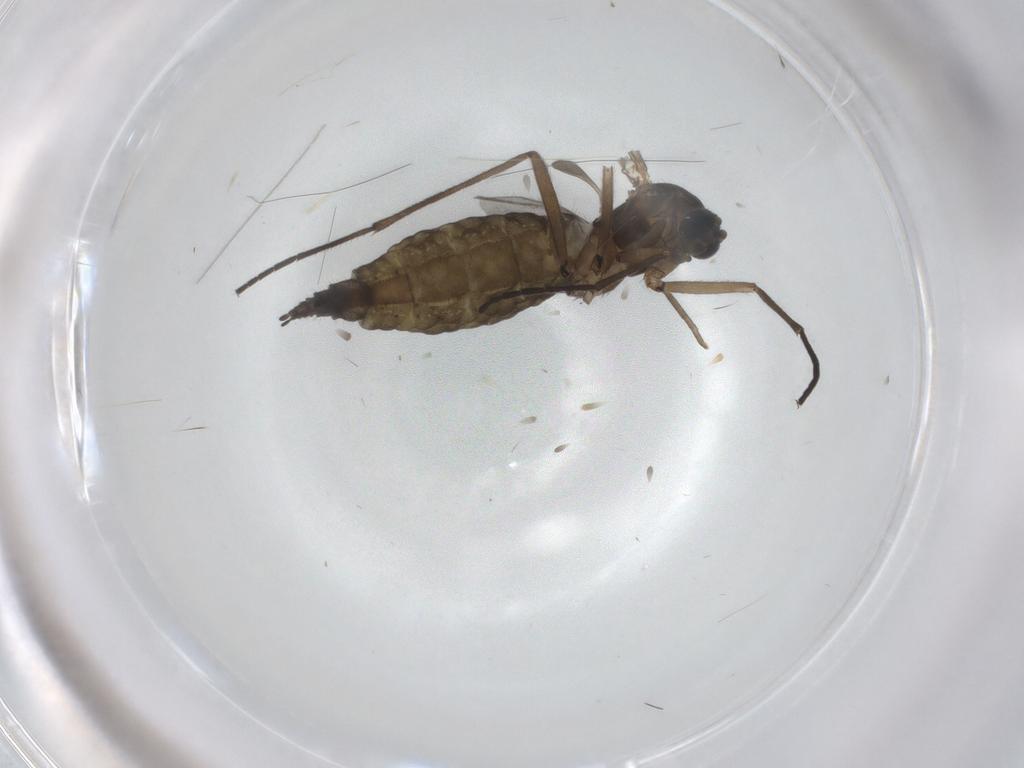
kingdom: Animalia
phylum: Arthropoda
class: Insecta
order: Diptera
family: Sciaridae
